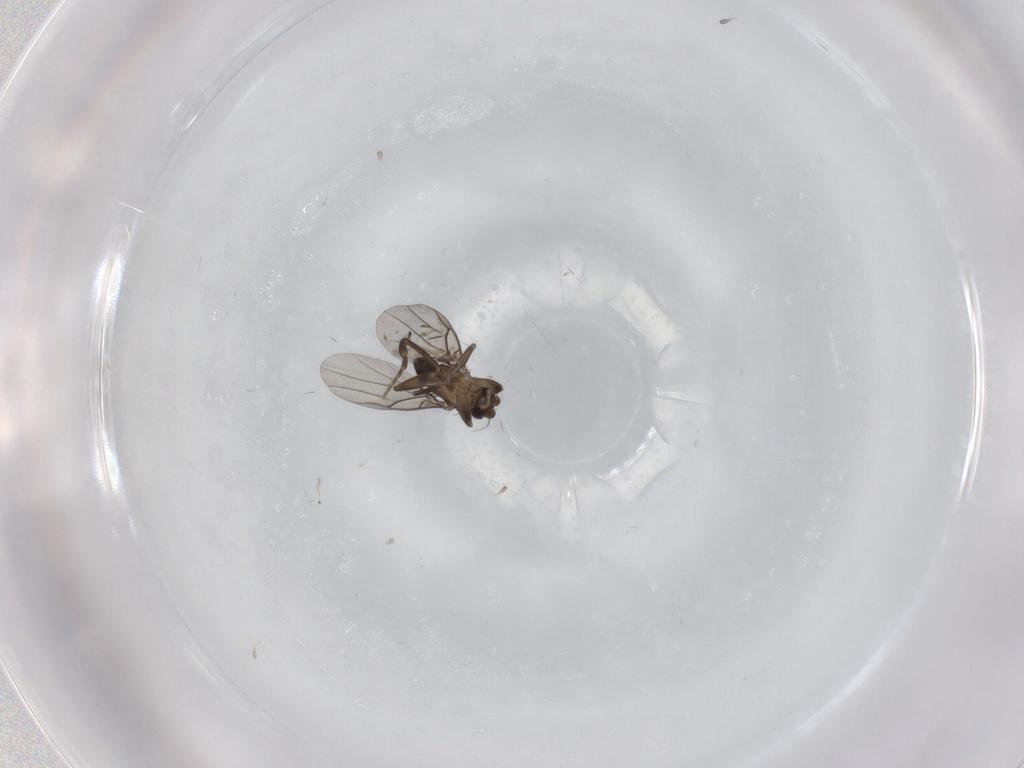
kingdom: Animalia
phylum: Arthropoda
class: Insecta
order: Diptera
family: Phoridae
